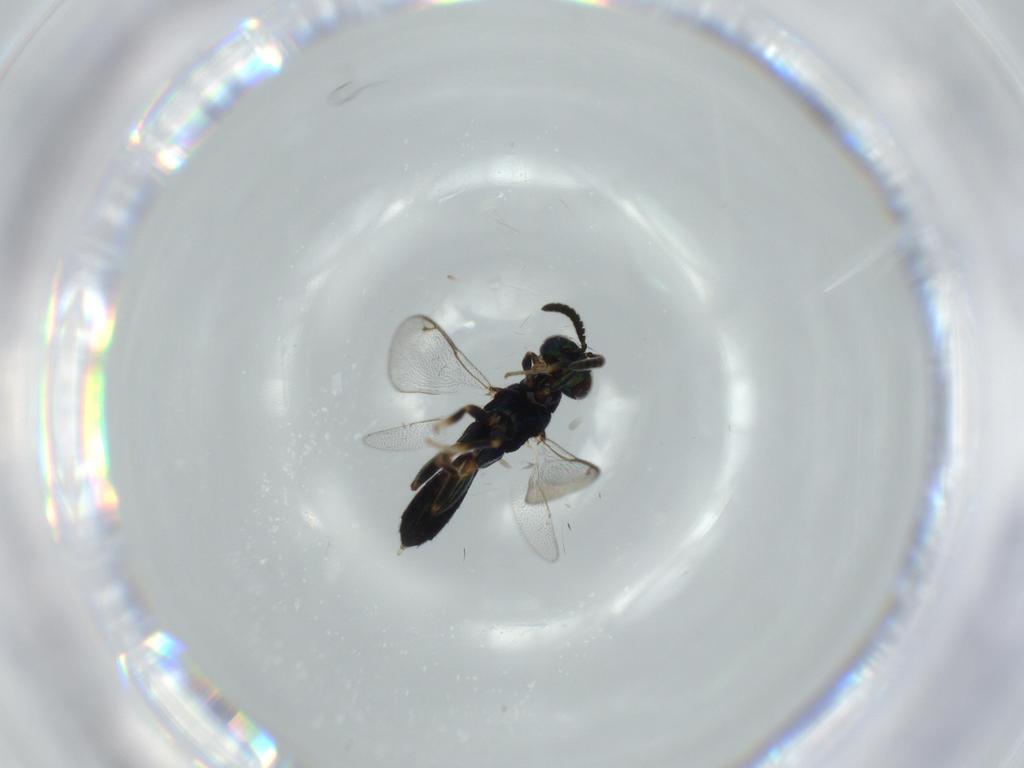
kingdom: Animalia
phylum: Arthropoda
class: Insecta
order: Hymenoptera
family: Cleonyminae
